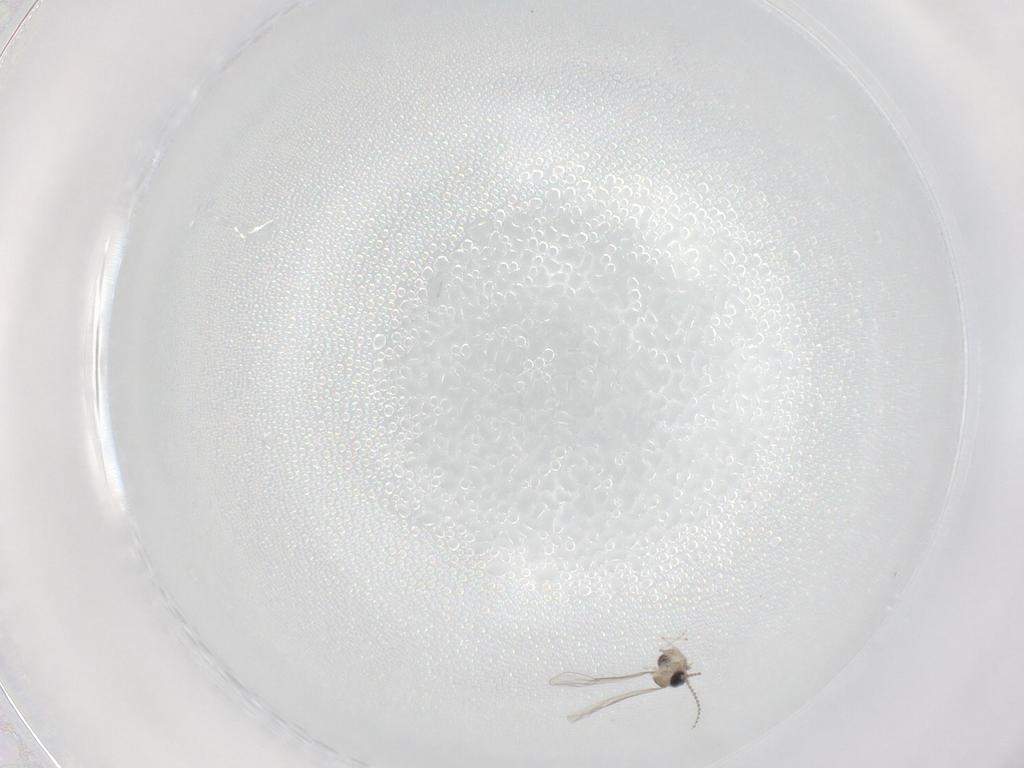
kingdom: Animalia
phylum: Arthropoda
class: Insecta
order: Diptera
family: Cecidomyiidae
